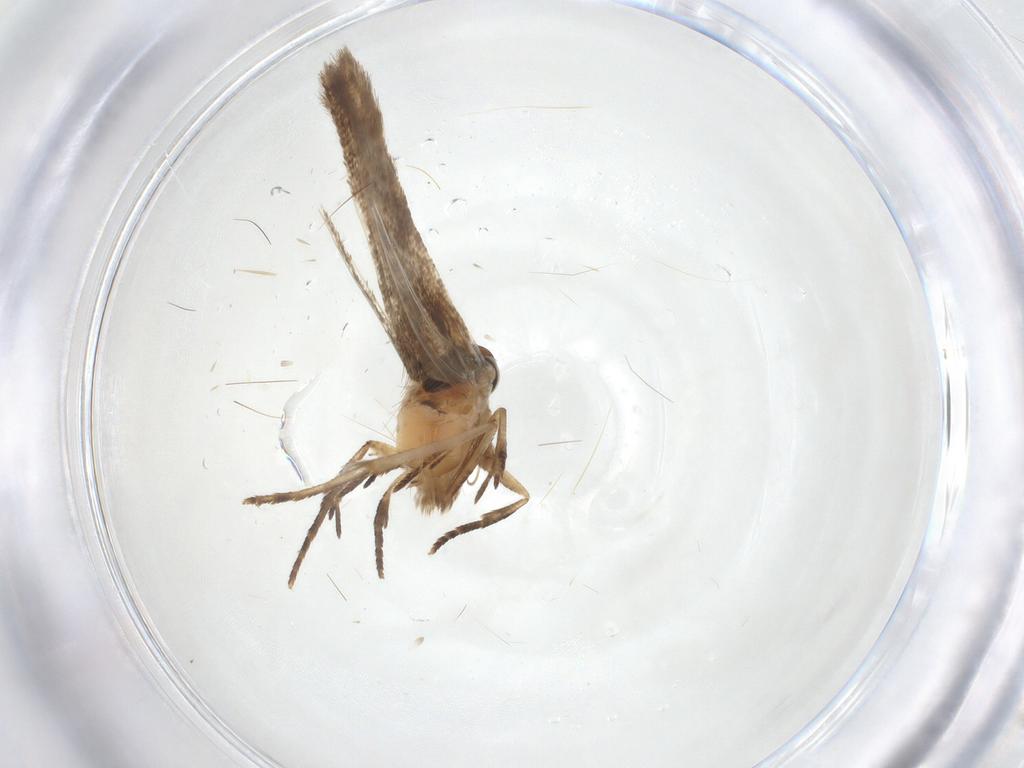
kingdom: Animalia
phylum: Arthropoda
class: Insecta
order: Lepidoptera
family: Cosmopterigidae
